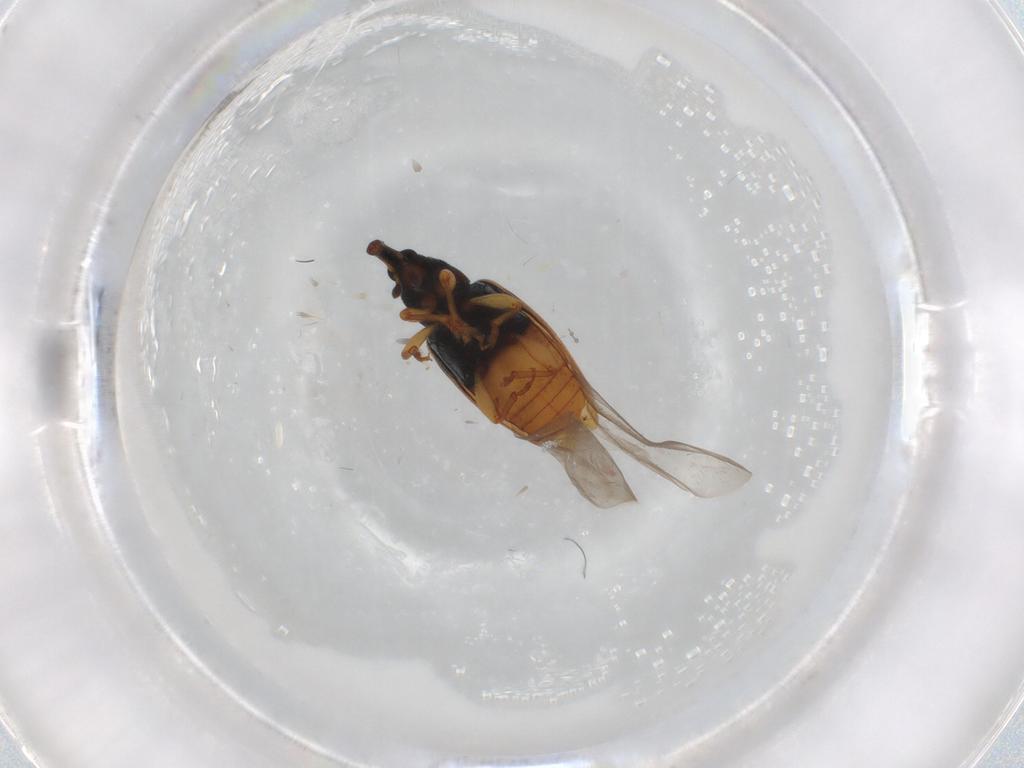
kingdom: Animalia
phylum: Arthropoda
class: Insecta
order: Coleoptera
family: Curculionidae
